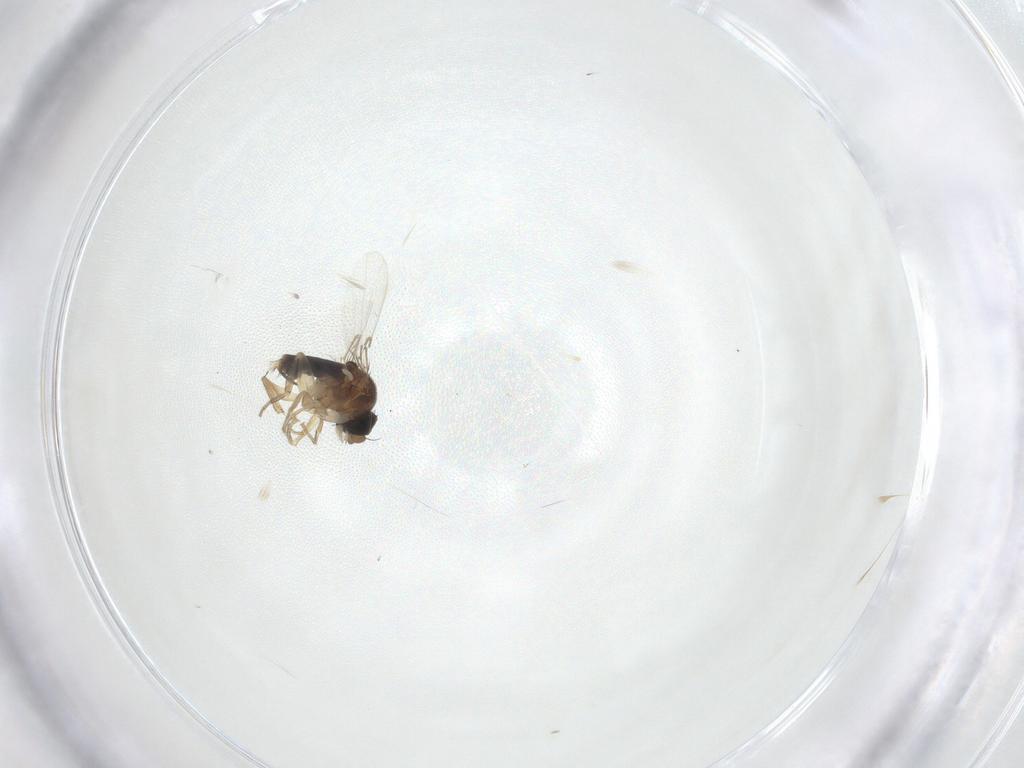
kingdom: Animalia
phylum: Arthropoda
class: Insecta
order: Diptera
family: Phoridae
